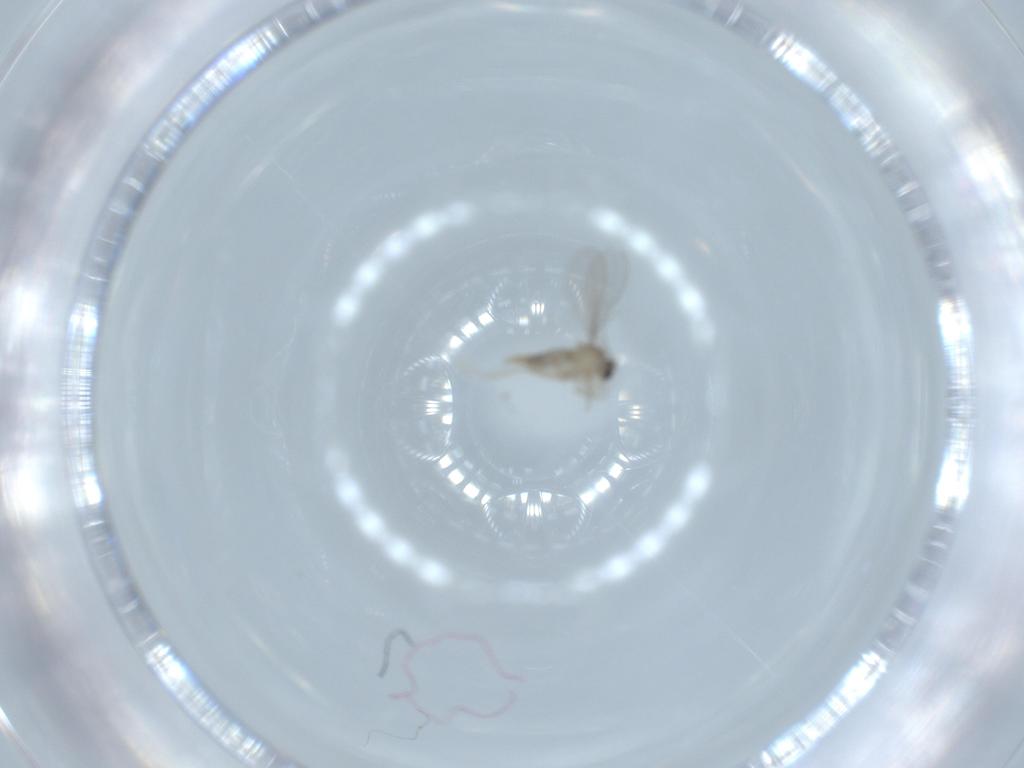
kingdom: Animalia
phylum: Arthropoda
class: Insecta
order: Diptera
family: Cecidomyiidae
